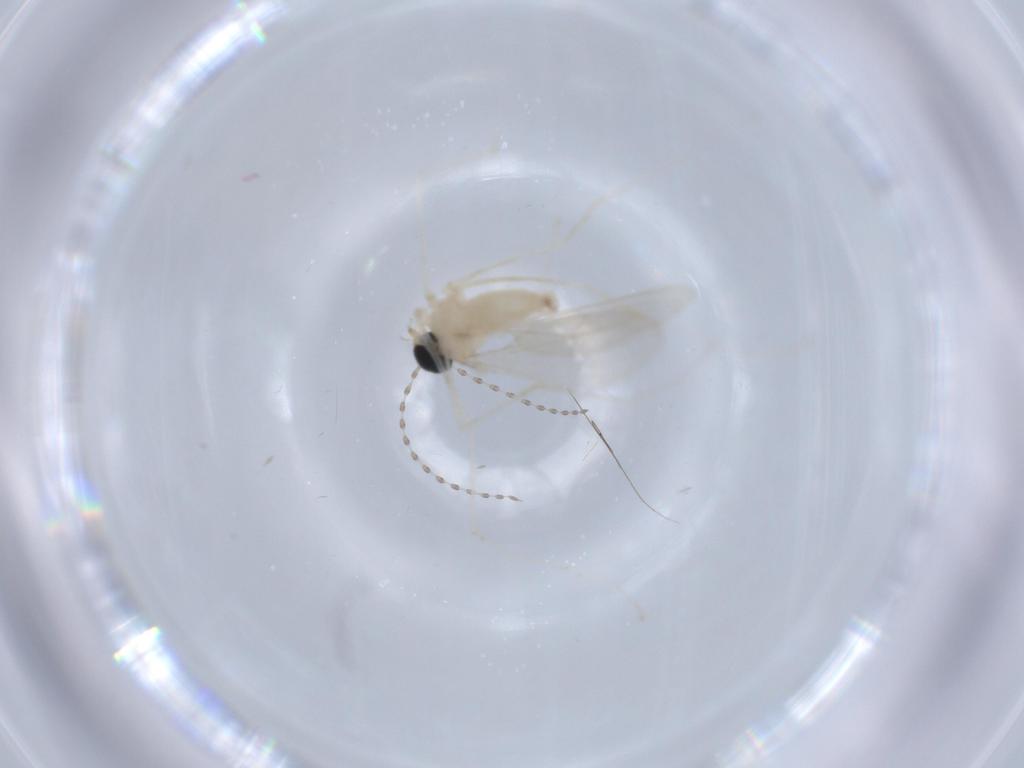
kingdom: Animalia
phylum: Arthropoda
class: Insecta
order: Diptera
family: Cecidomyiidae
